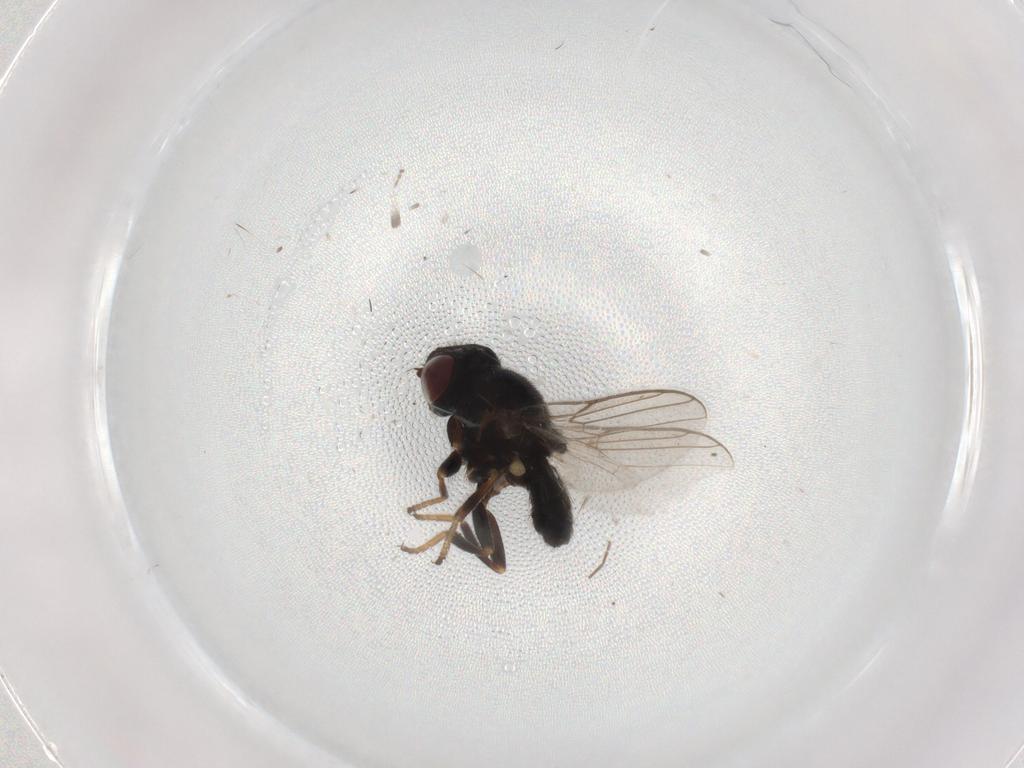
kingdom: Animalia
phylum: Arthropoda
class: Insecta
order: Diptera
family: Chloropidae
